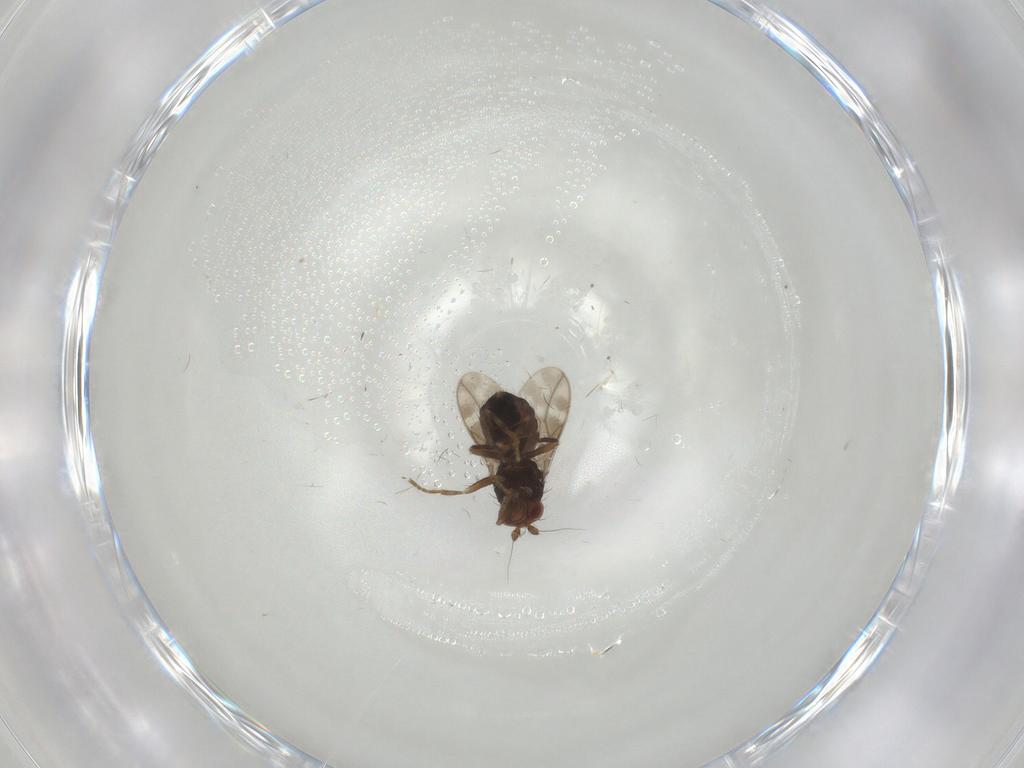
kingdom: Animalia
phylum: Arthropoda
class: Insecta
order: Diptera
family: Sphaeroceridae
